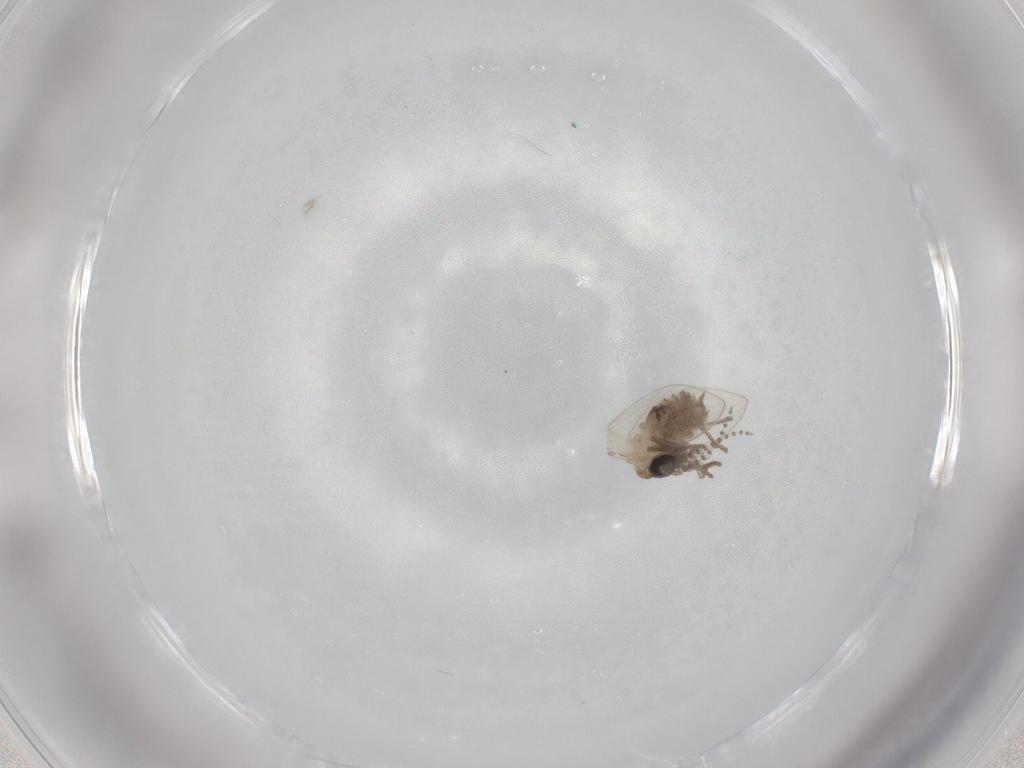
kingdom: Animalia
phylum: Arthropoda
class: Insecta
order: Diptera
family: Psychodidae
